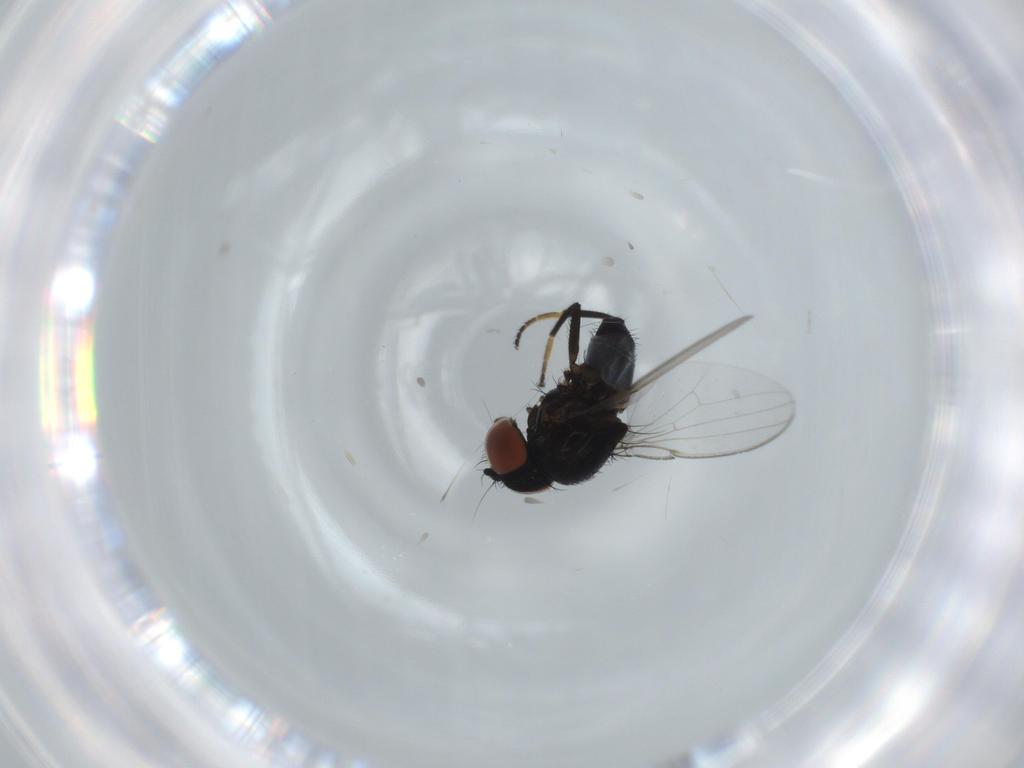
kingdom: Animalia
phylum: Arthropoda
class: Insecta
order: Diptera
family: Milichiidae
